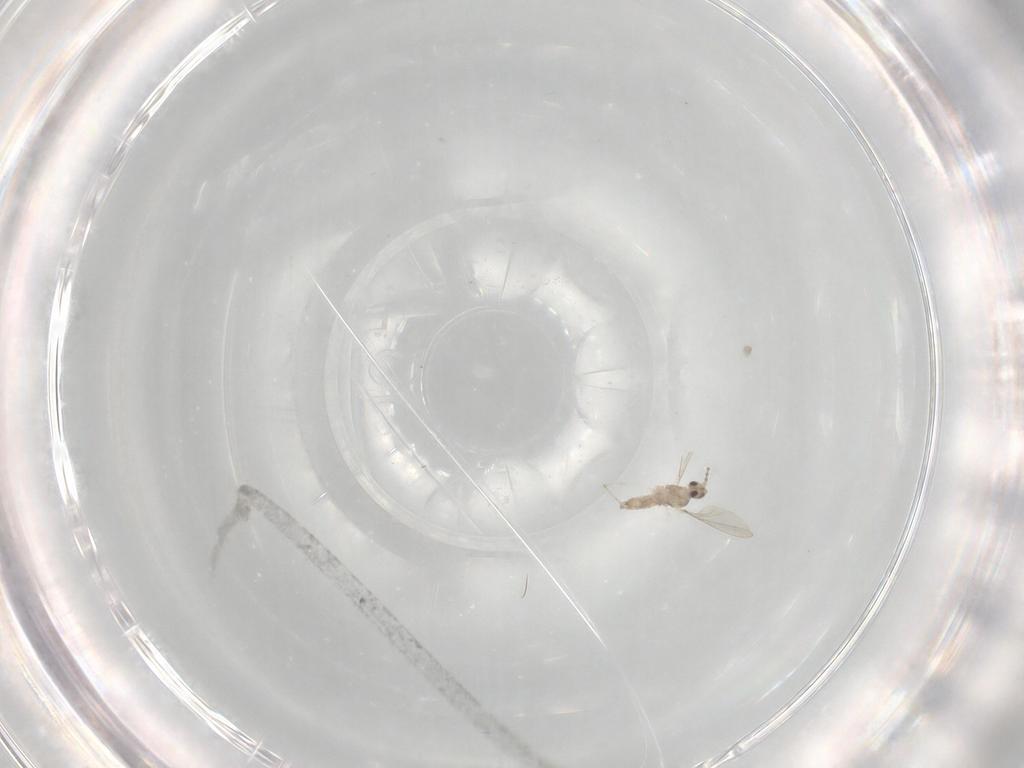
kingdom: Animalia
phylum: Arthropoda
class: Insecta
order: Diptera
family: Cecidomyiidae
